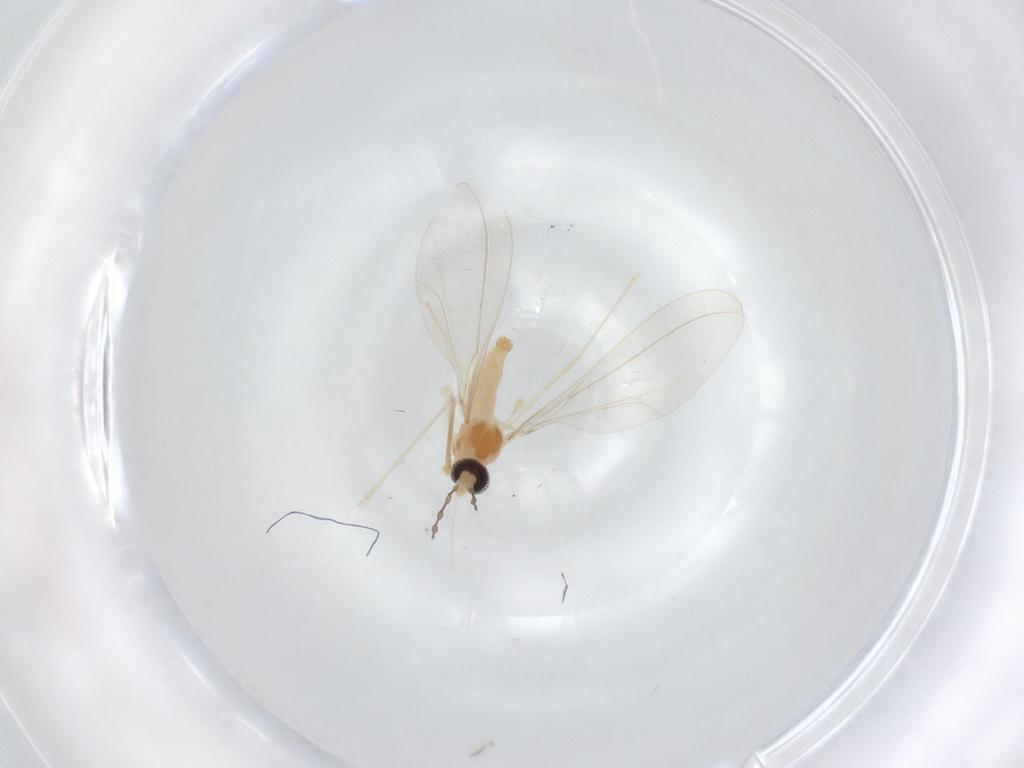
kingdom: Animalia
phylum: Arthropoda
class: Insecta
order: Diptera
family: Cecidomyiidae
